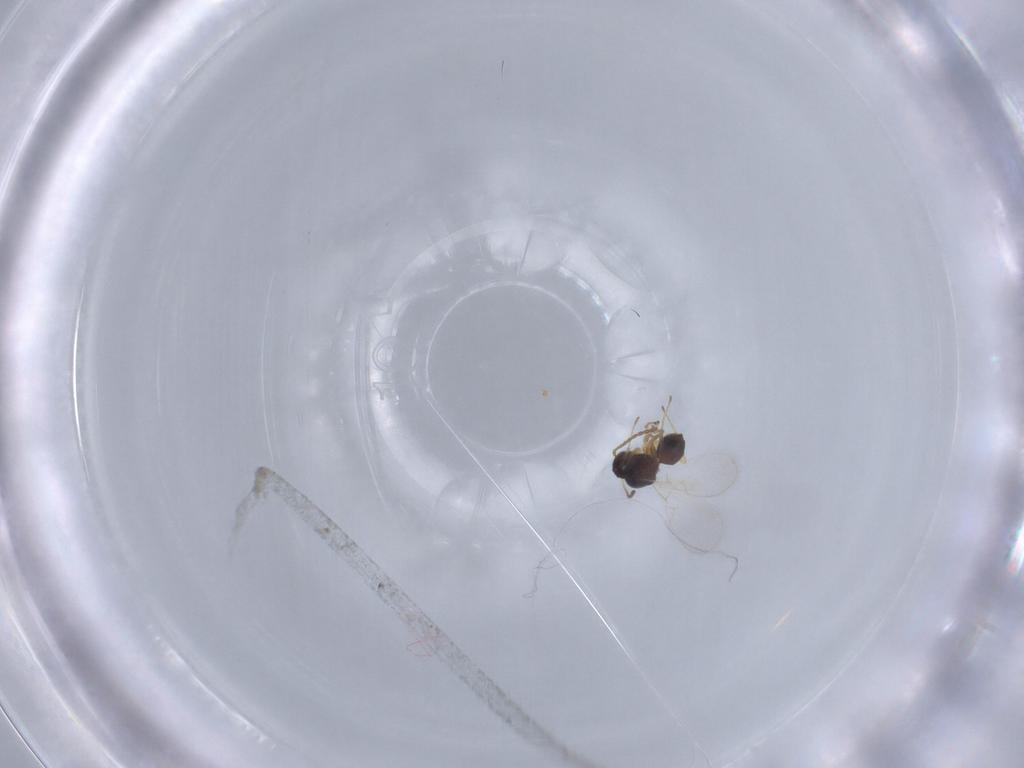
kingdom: Animalia
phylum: Arthropoda
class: Insecta
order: Hymenoptera
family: Figitidae
